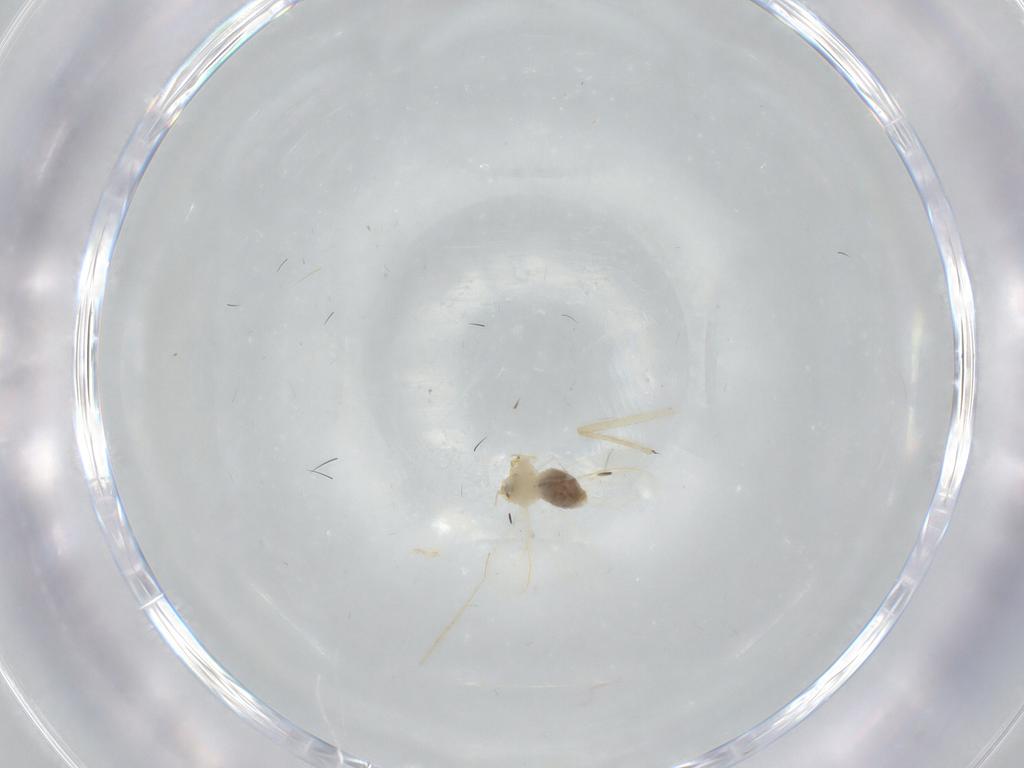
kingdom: Animalia
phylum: Arthropoda
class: Insecta
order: Hemiptera
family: Aleyrodidae
